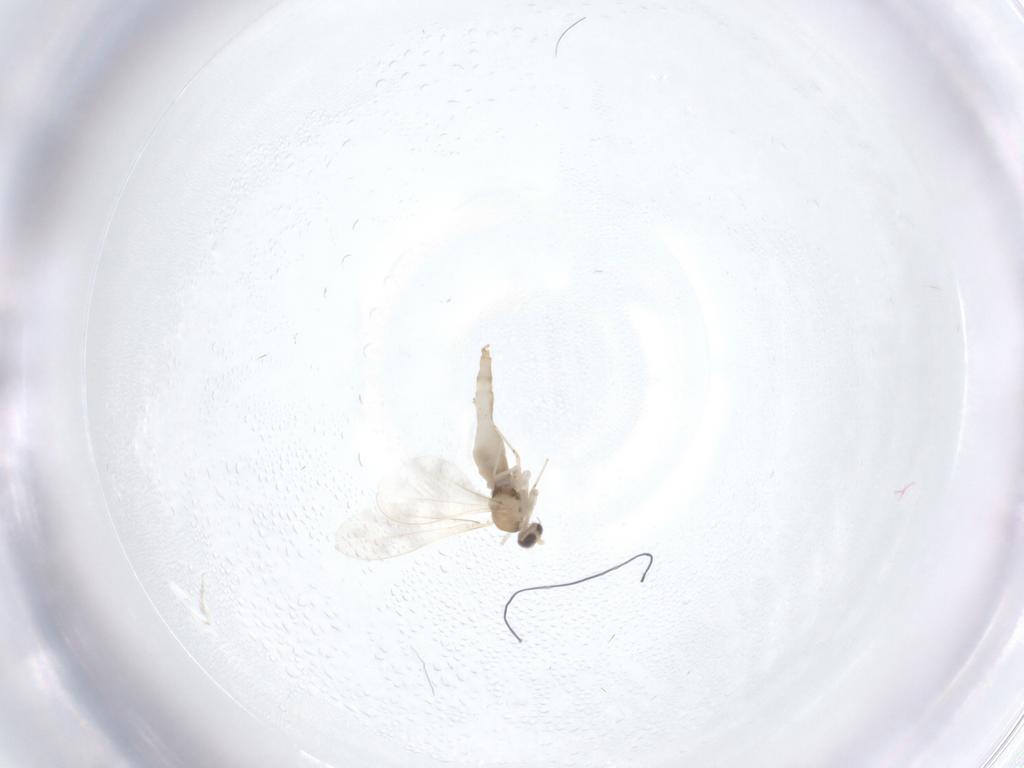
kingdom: Animalia
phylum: Arthropoda
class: Insecta
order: Diptera
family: Cecidomyiidae
